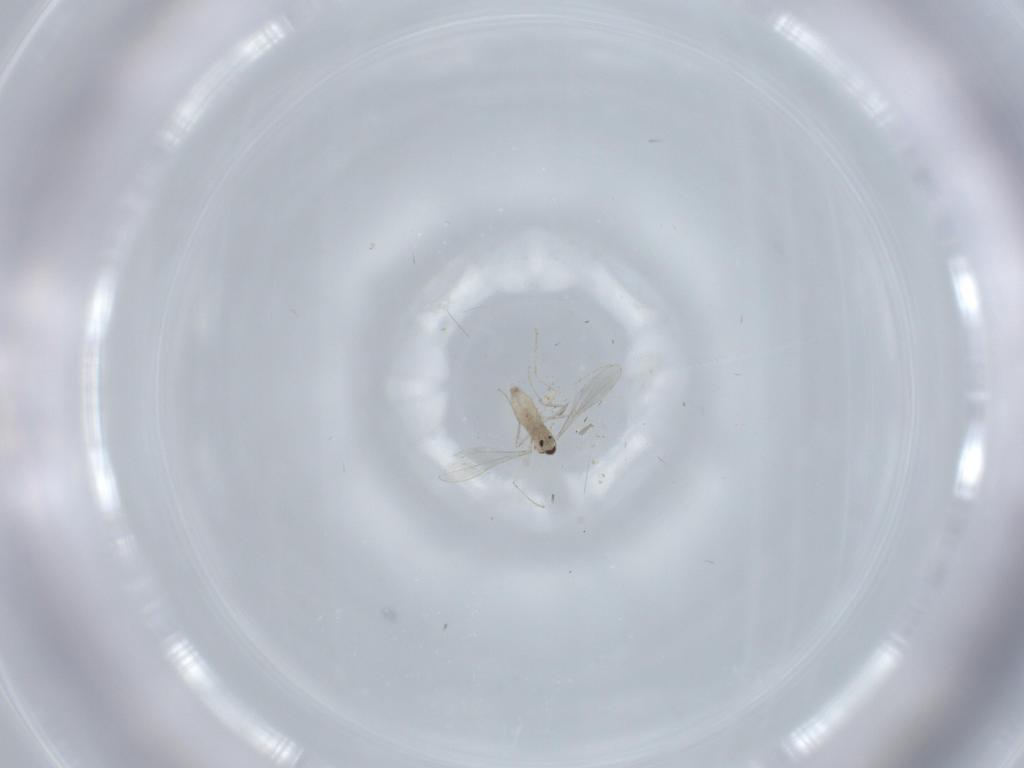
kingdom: Animalia
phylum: Arthropoda
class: Insecta
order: Diptera
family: Cecidomyiidae
